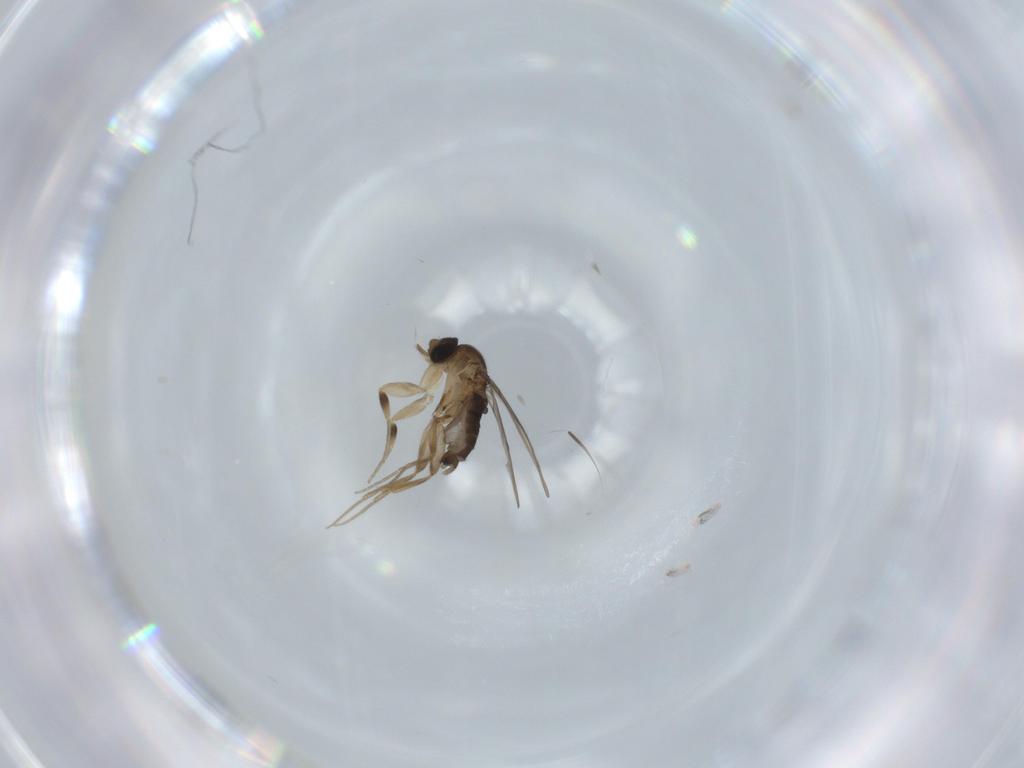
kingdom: Animalia
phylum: Arthropoda
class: Insecta
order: Diptera
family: Phoridae
